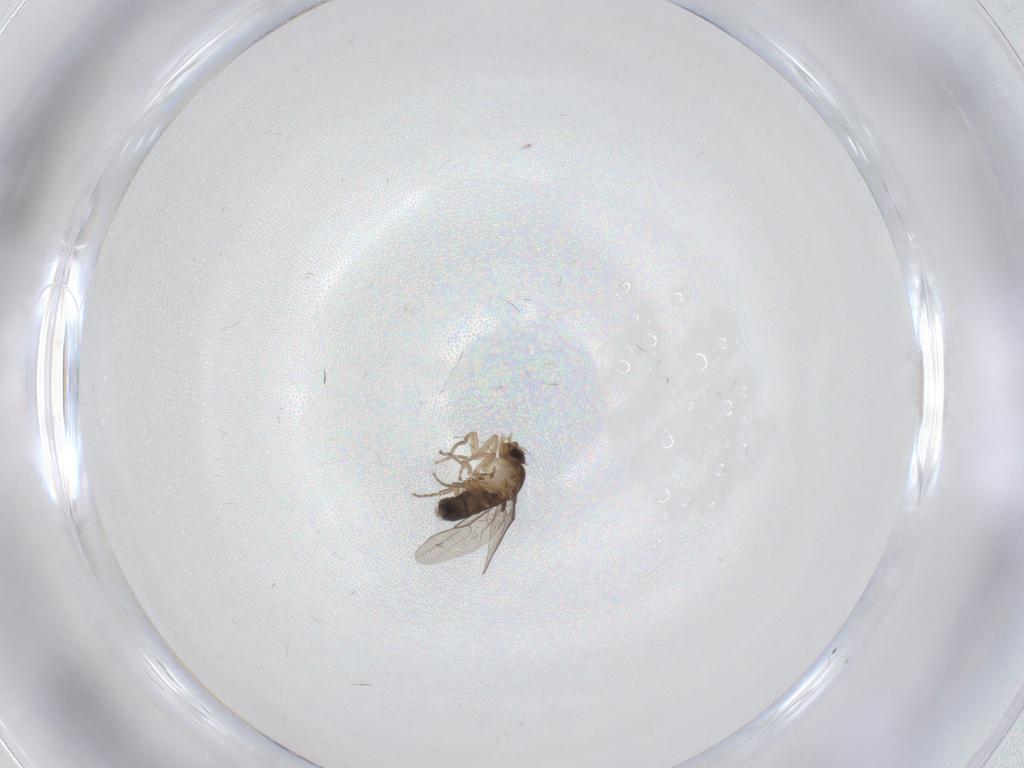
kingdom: Animalia
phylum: Arthropoda
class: Insecta
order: Diptera
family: Phoridae
